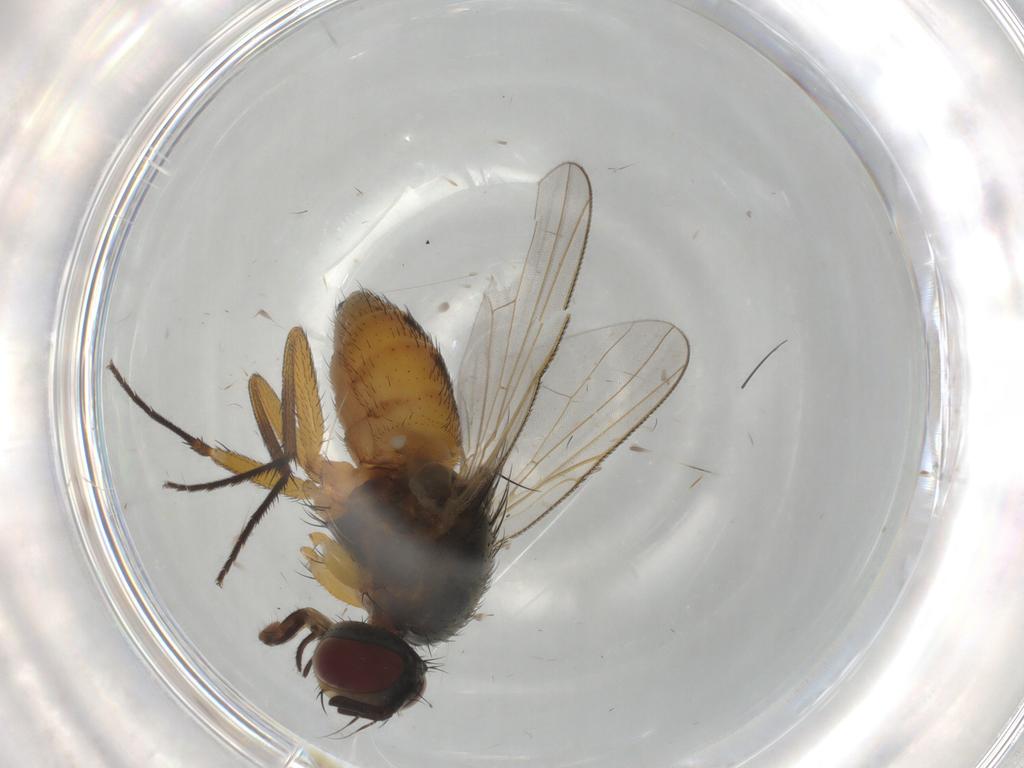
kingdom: Animalia
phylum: Arthropoda
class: Insecta
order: Diptera
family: Muscidae
